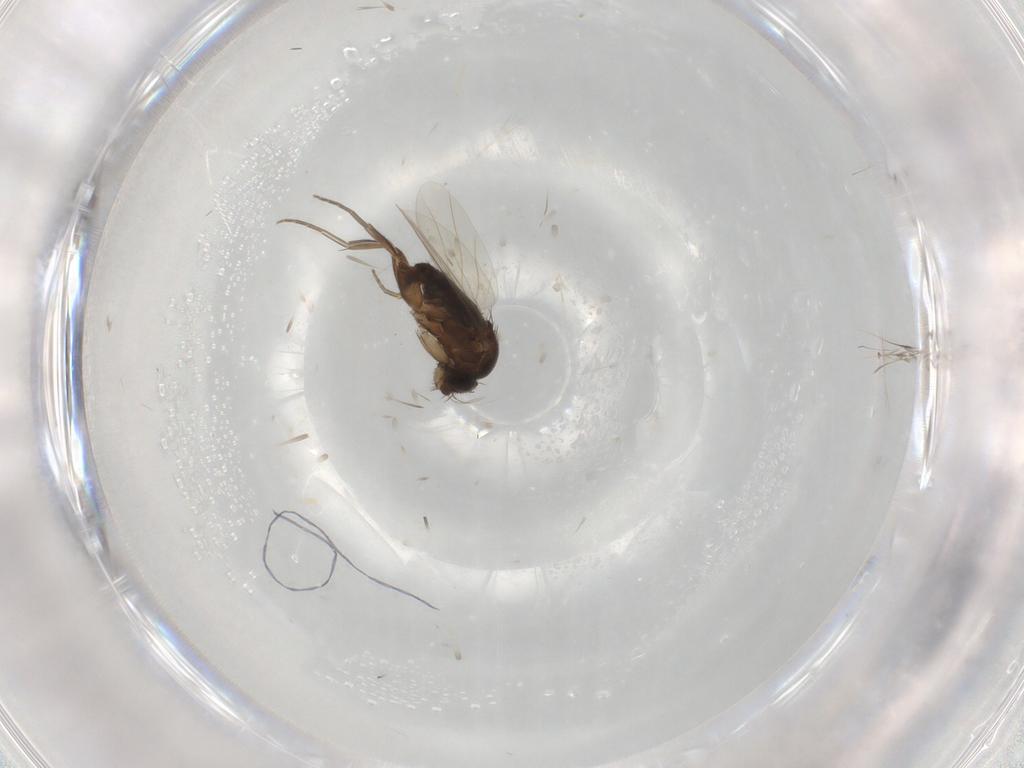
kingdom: Animalia
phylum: Arthropoda
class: Insecta
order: Diptera
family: Phoridae
